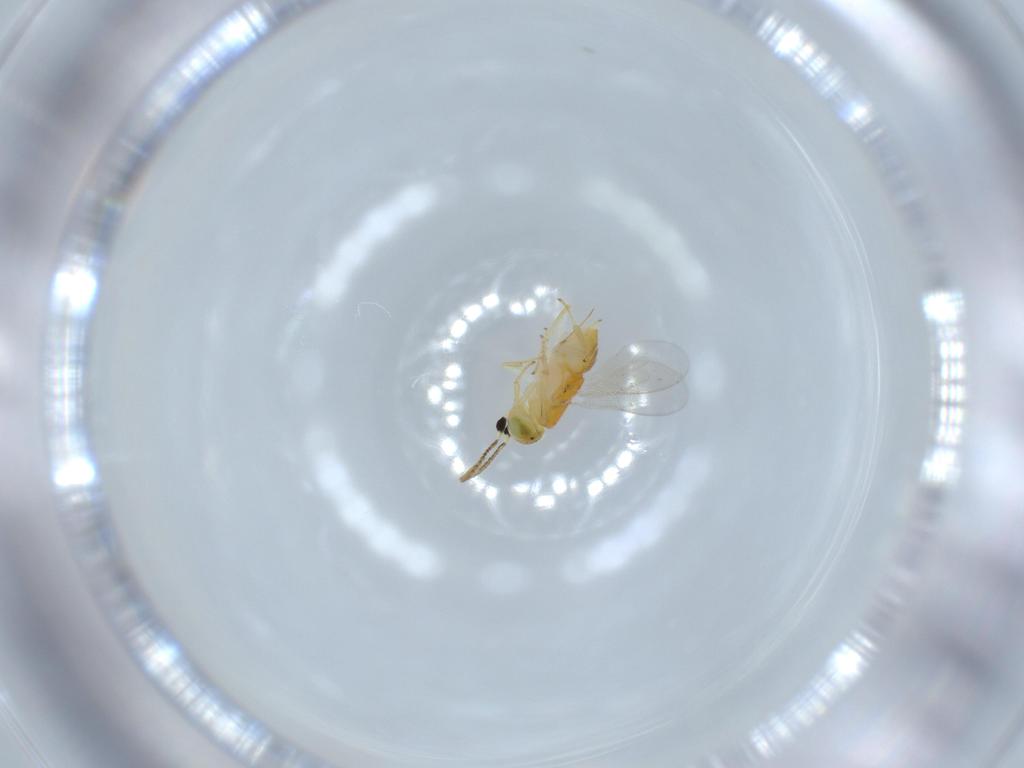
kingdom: Animalia
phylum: Arthropoda
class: Insecta
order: Hymenoptera
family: Encyrtidae
